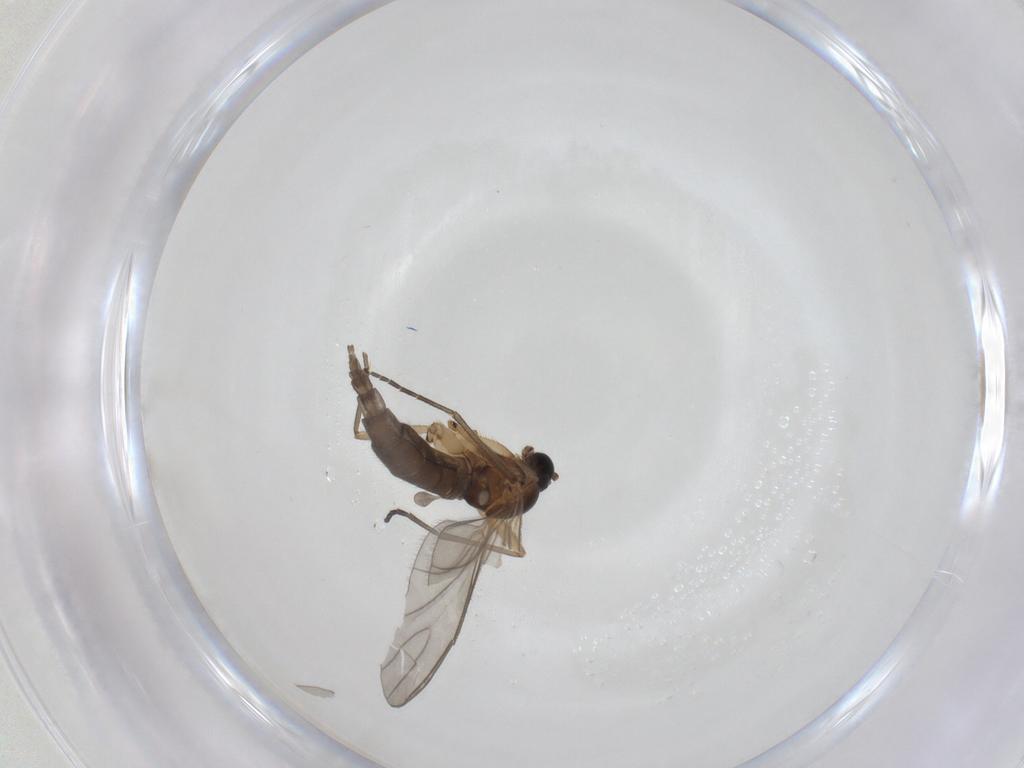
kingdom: Animalia
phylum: Arthropoda
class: Insecta
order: Diptera
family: Sciaridae
